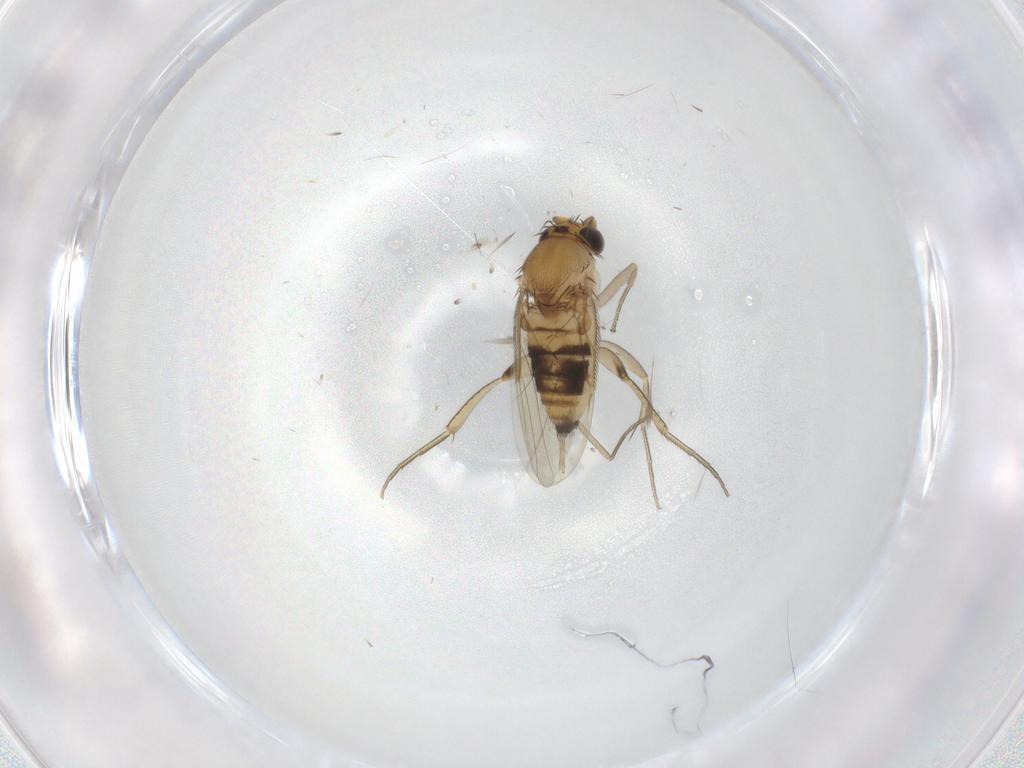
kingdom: Animalia
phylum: Arthropoda
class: Insecta
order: Diptera
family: Phoridae
